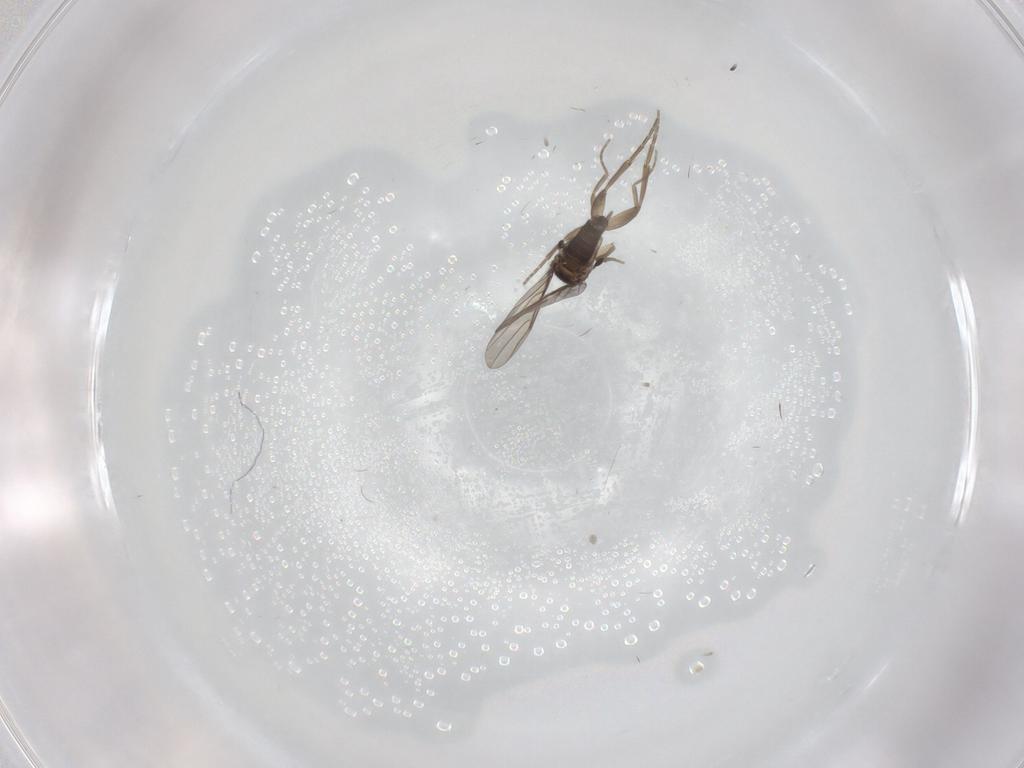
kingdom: Animalia
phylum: Arthropoda
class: Insecta
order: Diptera
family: Phoridae
